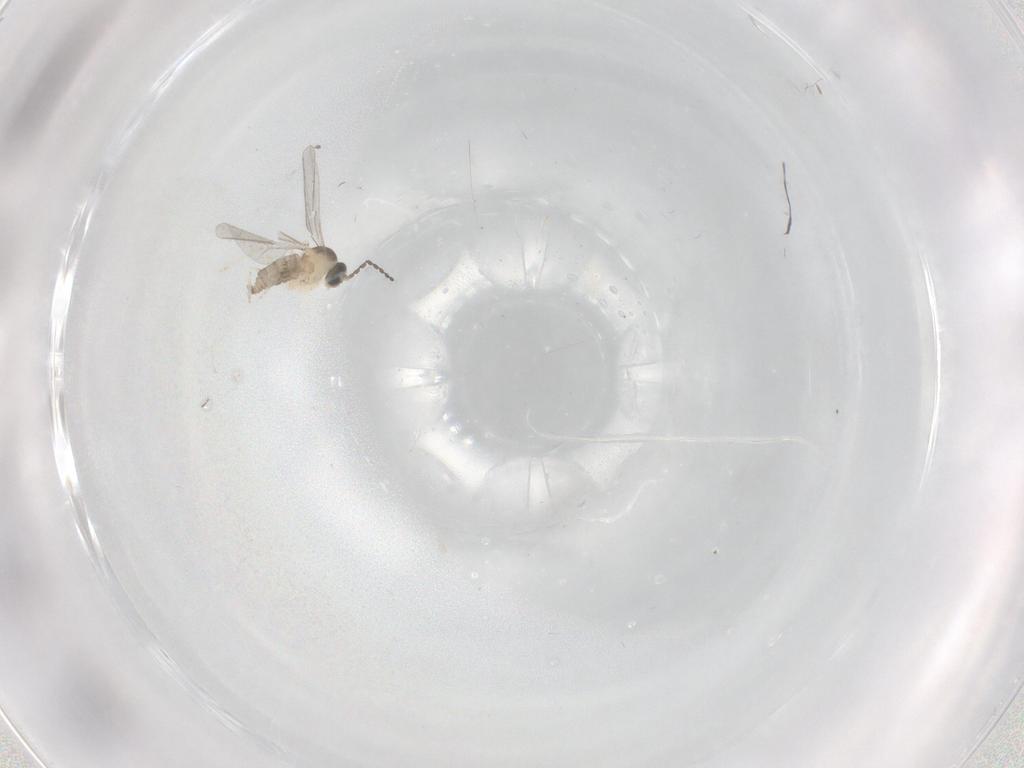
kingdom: Animalia
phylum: Arthropoda
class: Insecta
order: Diptera
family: Cecidomyiidae
